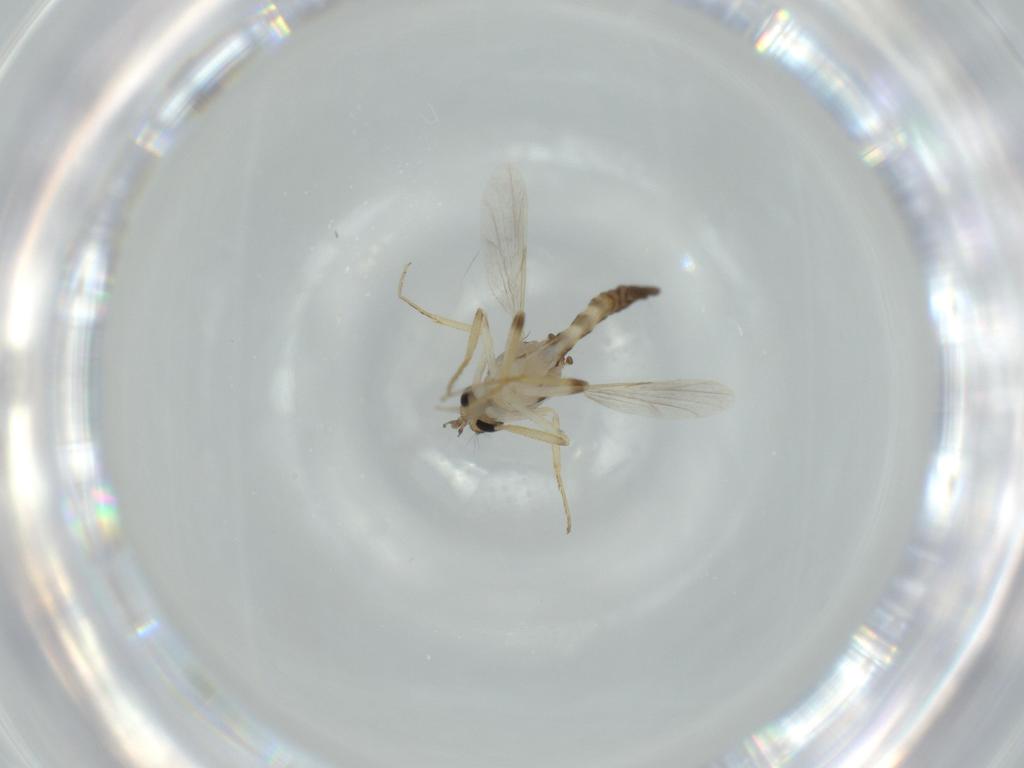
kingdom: Animalia
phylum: Arthropoda
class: Insecta
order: Diptera
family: Ceratopogonidae
